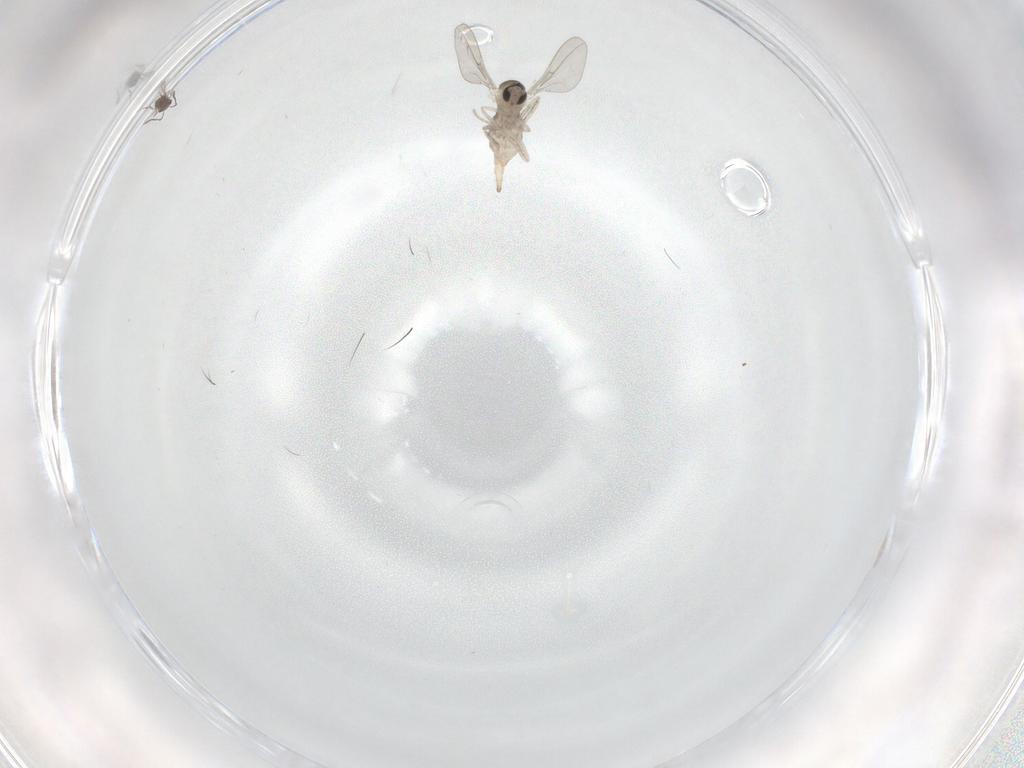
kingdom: Animalia
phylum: Arthropoda
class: Insecta
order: Diptera
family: Cecidomyiidae
